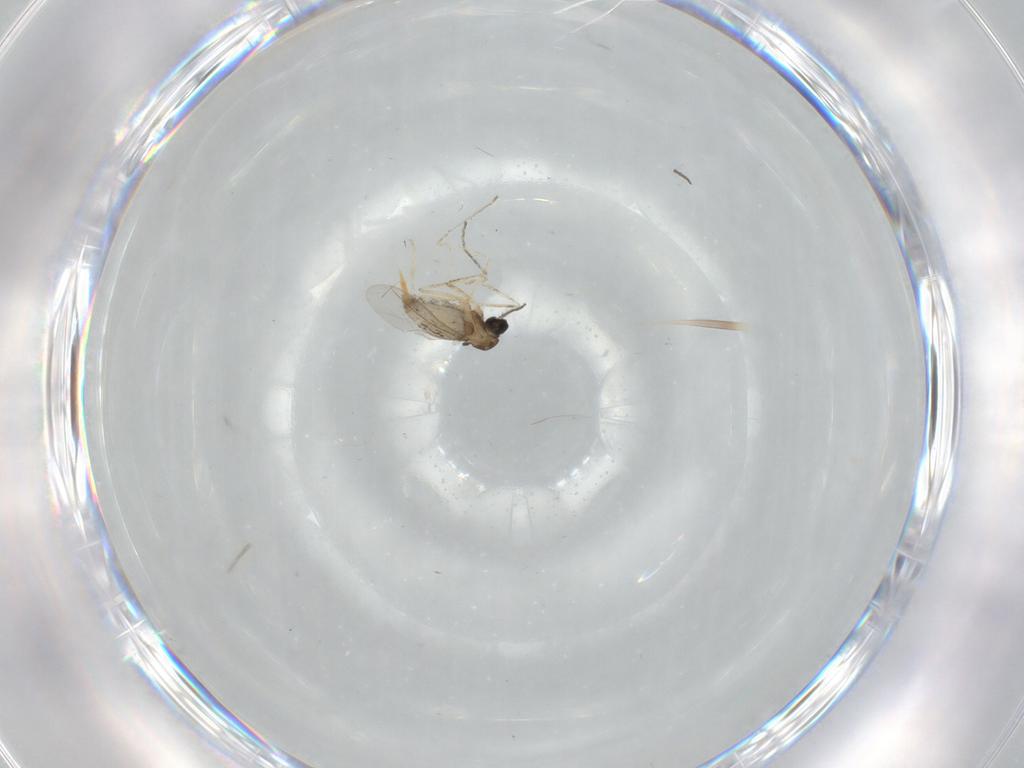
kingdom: Animalia
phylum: Arthropoda
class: Insecta
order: Diptera
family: Cecidomyiidae
